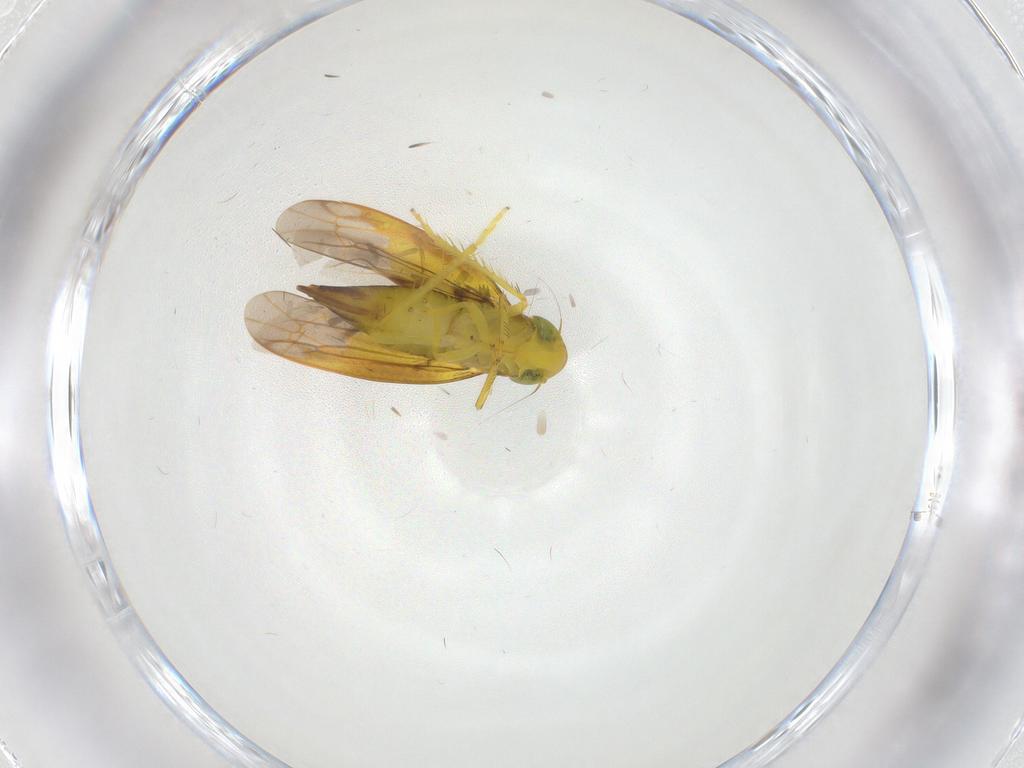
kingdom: Animalia
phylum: Arthropoda
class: Insecta
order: Hemiptera
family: Cicadellidae
